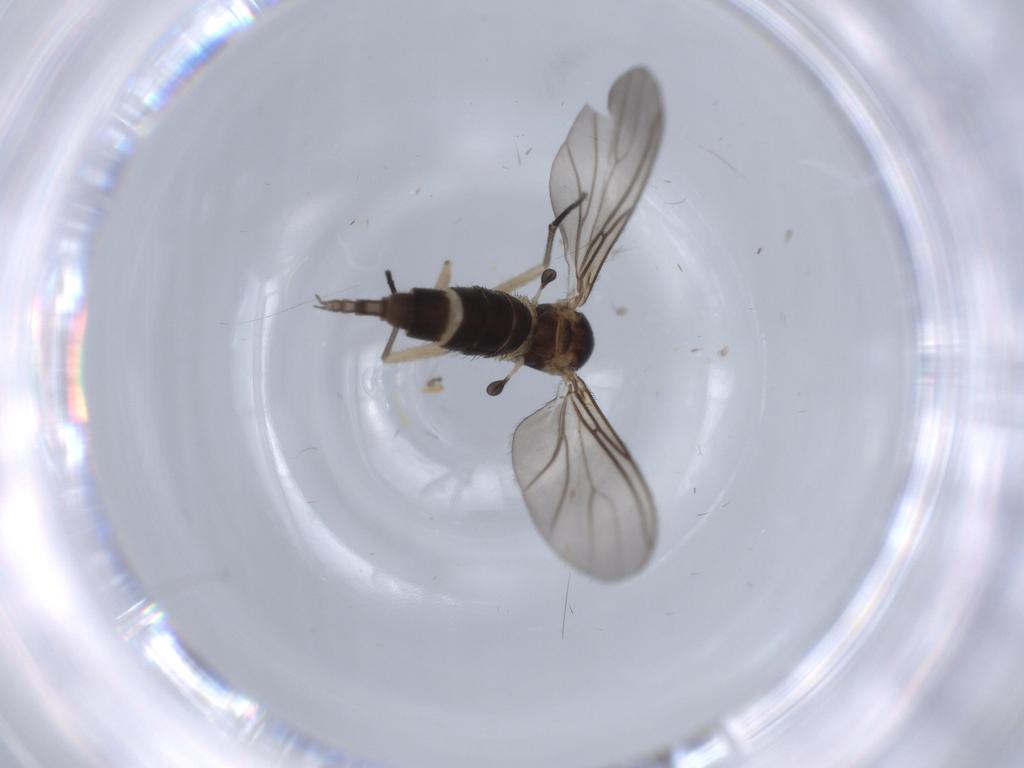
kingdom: Animalia
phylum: Arthropoda
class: Insecta
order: Diptera
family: Sciaridae
